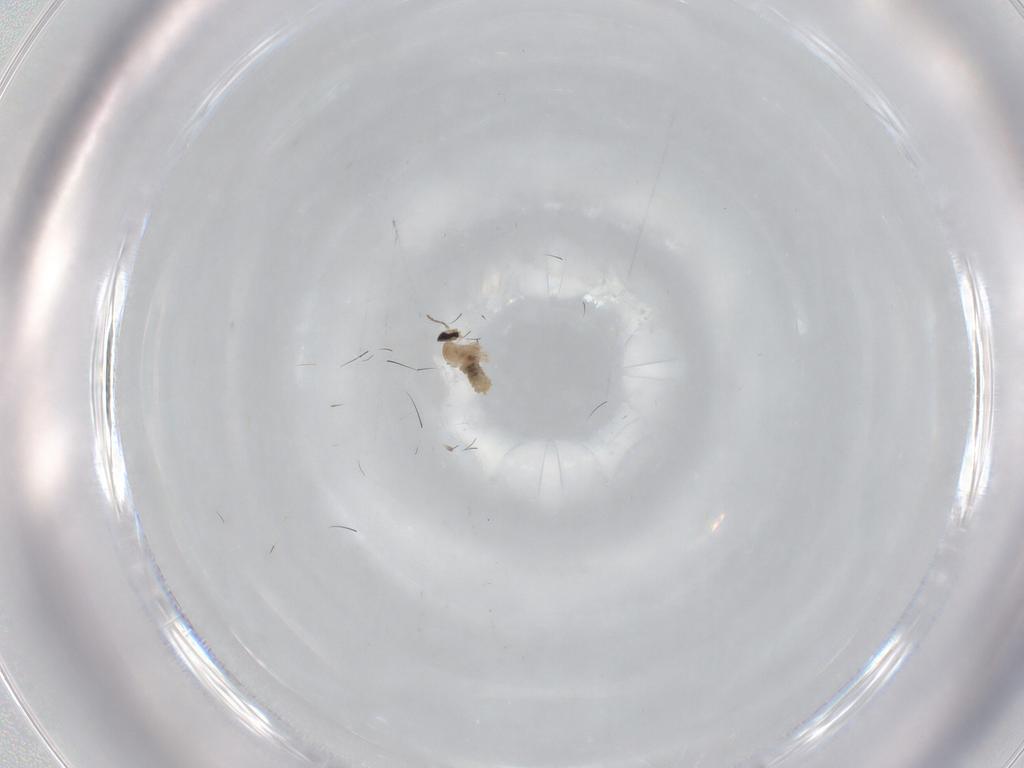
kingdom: Animalia
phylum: Arthropoda
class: Insecta
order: Diptera
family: Cecidomyiidae
